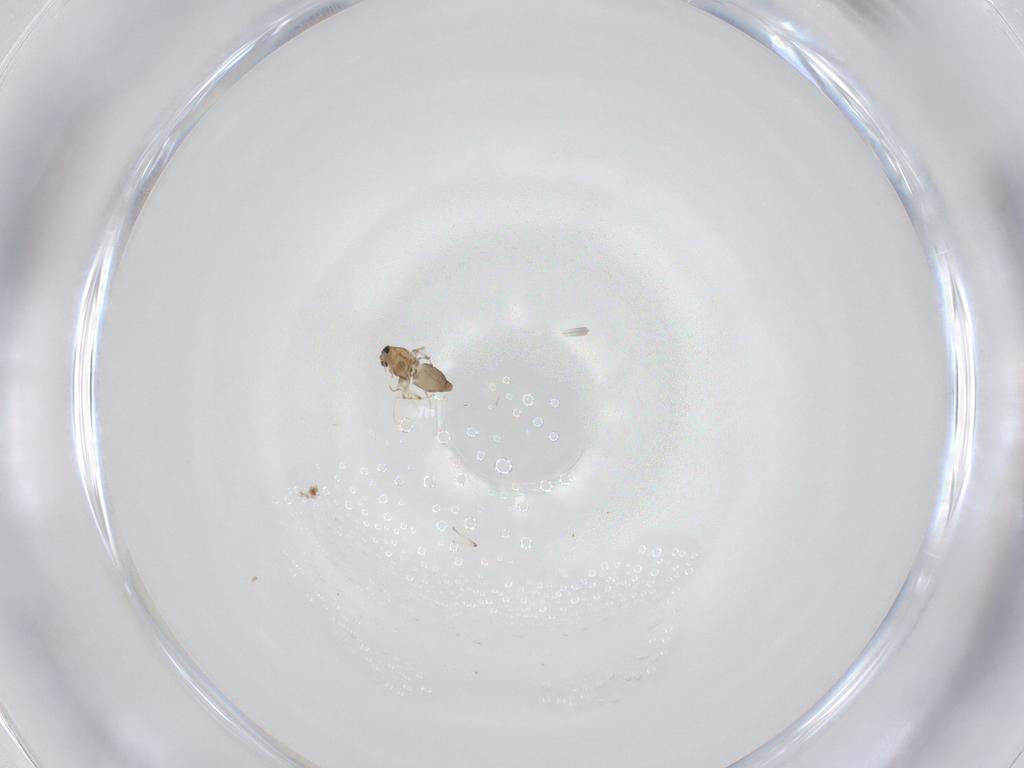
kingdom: Animalia
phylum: Arthropoda
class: Insecta
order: Diptera
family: Chironomidae
